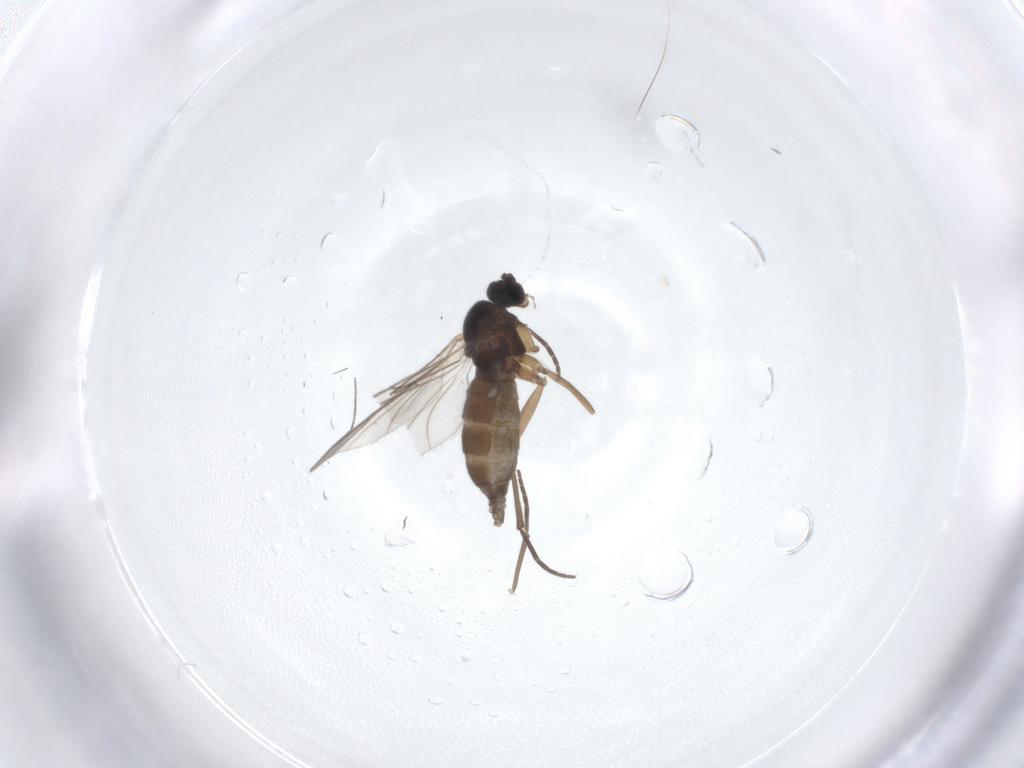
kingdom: Animalia
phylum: Arthropoda
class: Insecta
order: Diptera
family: Sciaridae
